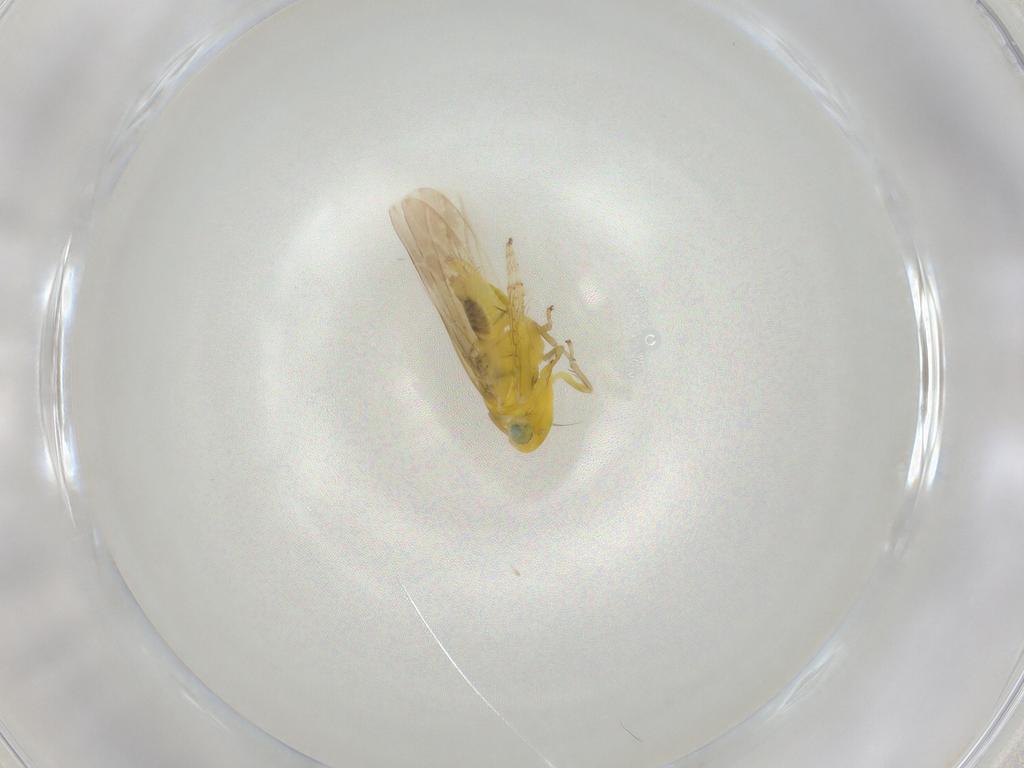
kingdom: Animalia
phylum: Arthropoda
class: Insecta
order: Hemiptera
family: Cicadellidae
